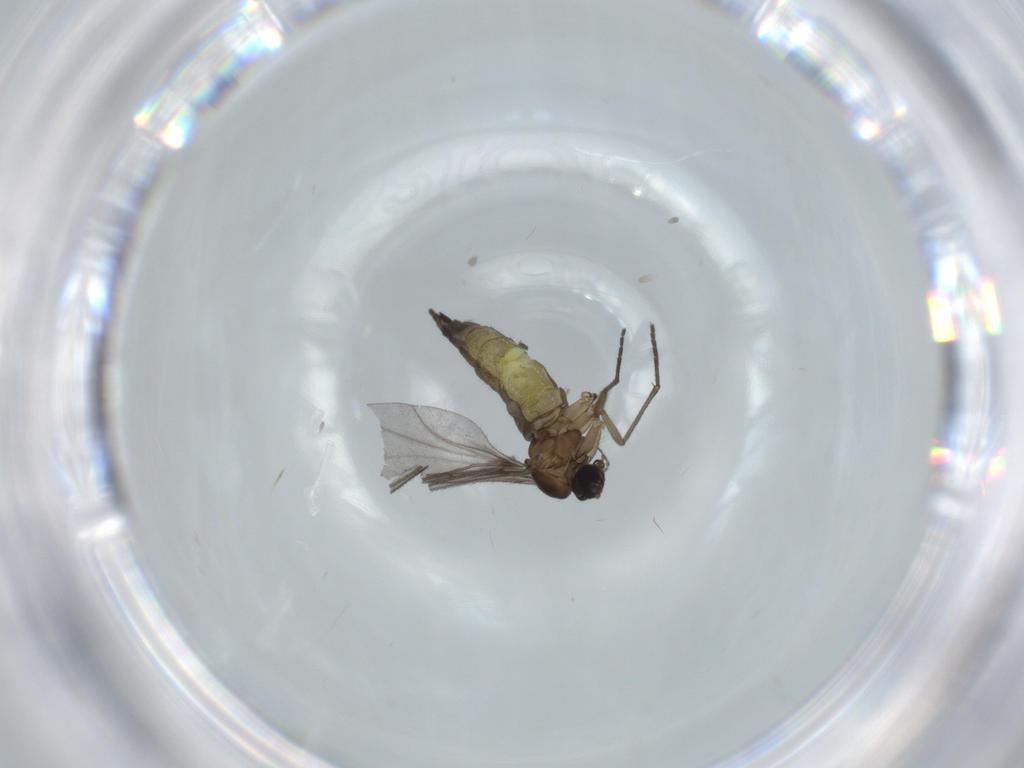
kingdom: Animalia
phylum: Arthropoda
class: Insecta
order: Diptera
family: Sciaridae
